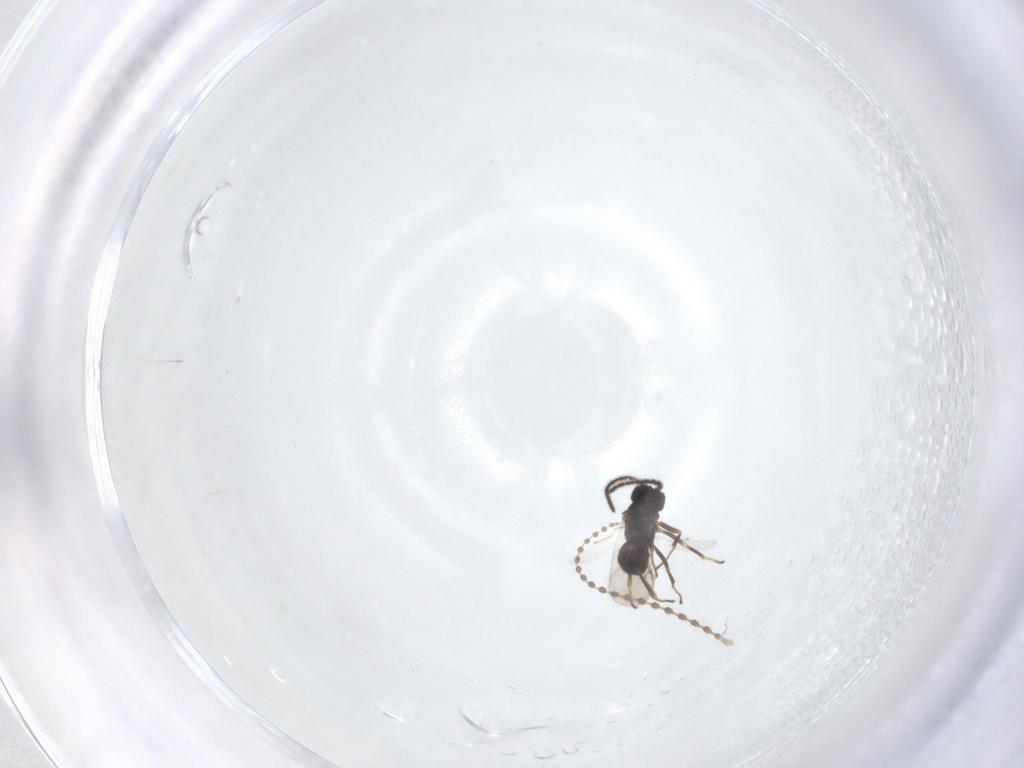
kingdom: Animalia
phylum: Arthropoda
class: Insecta
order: Hymenoptera
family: Encyrtidae
